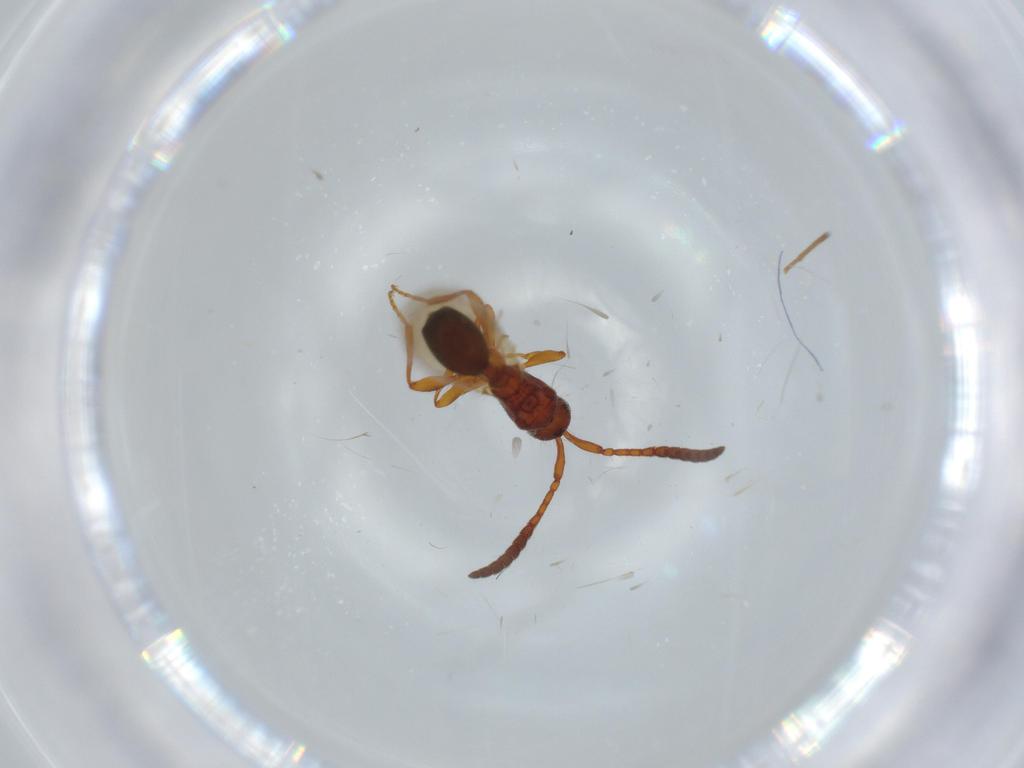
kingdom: Animalia
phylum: Arthropoda
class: Insecta
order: Hymenoptera
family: Diapriidae
